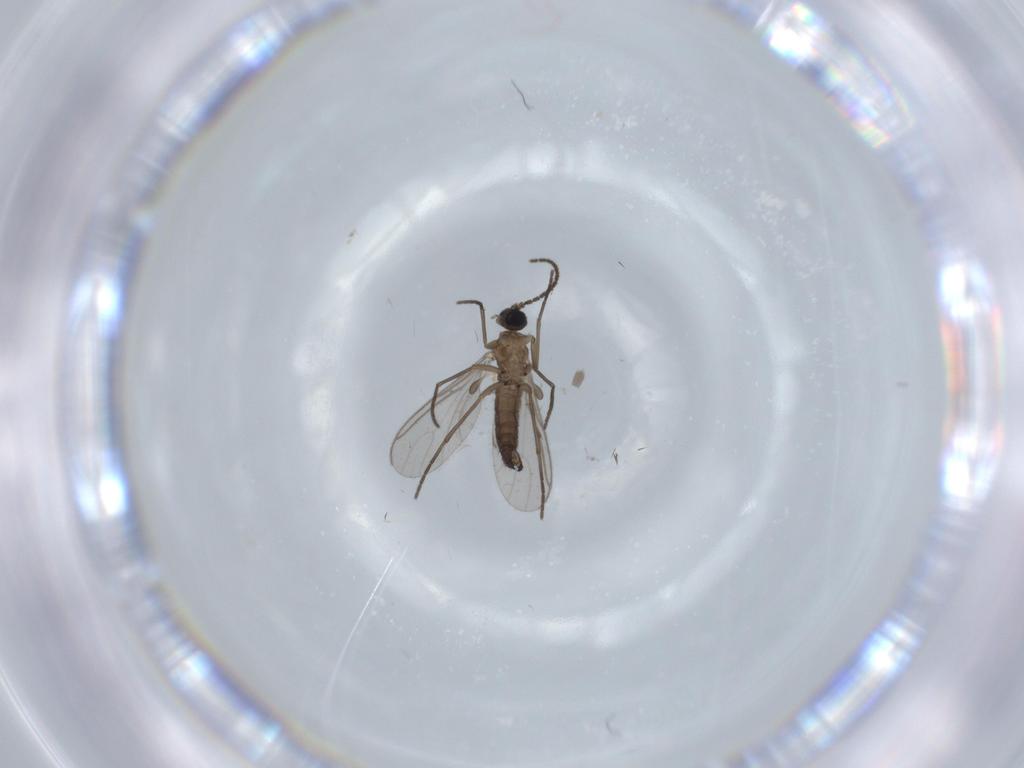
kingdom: Animalia
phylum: Arthropoda
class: Insecta
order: Diptera
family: Sciaridae
